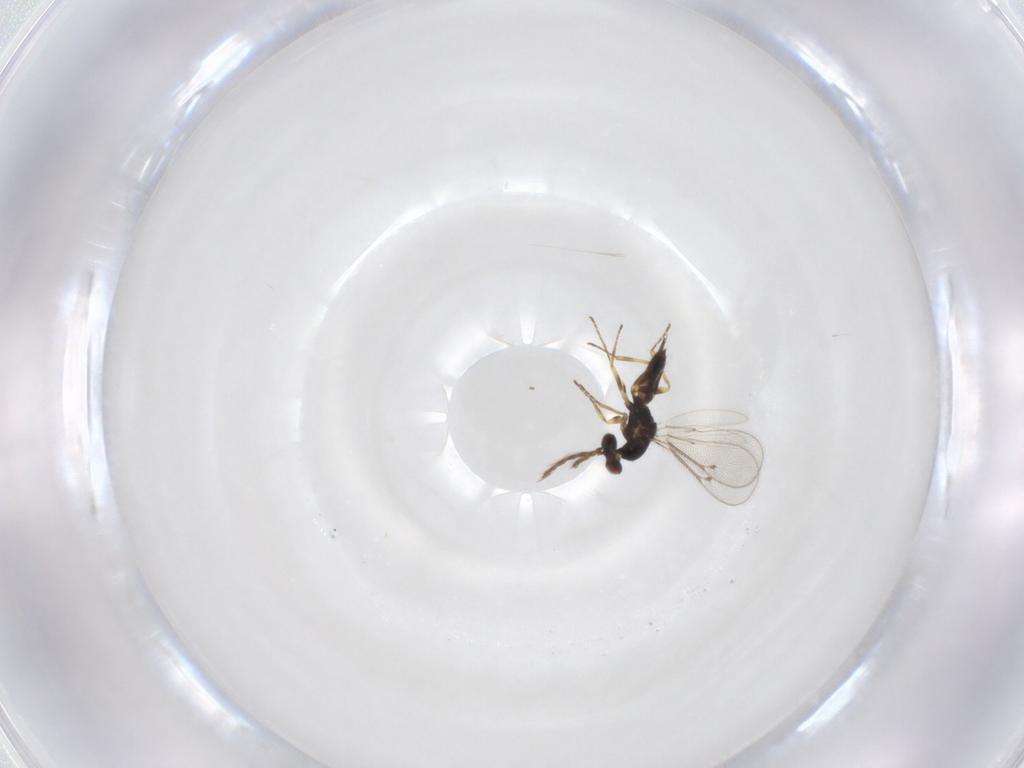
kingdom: Animalia
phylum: Arthropoda
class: Insecta
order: Hymenoptera
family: Eulophidae
